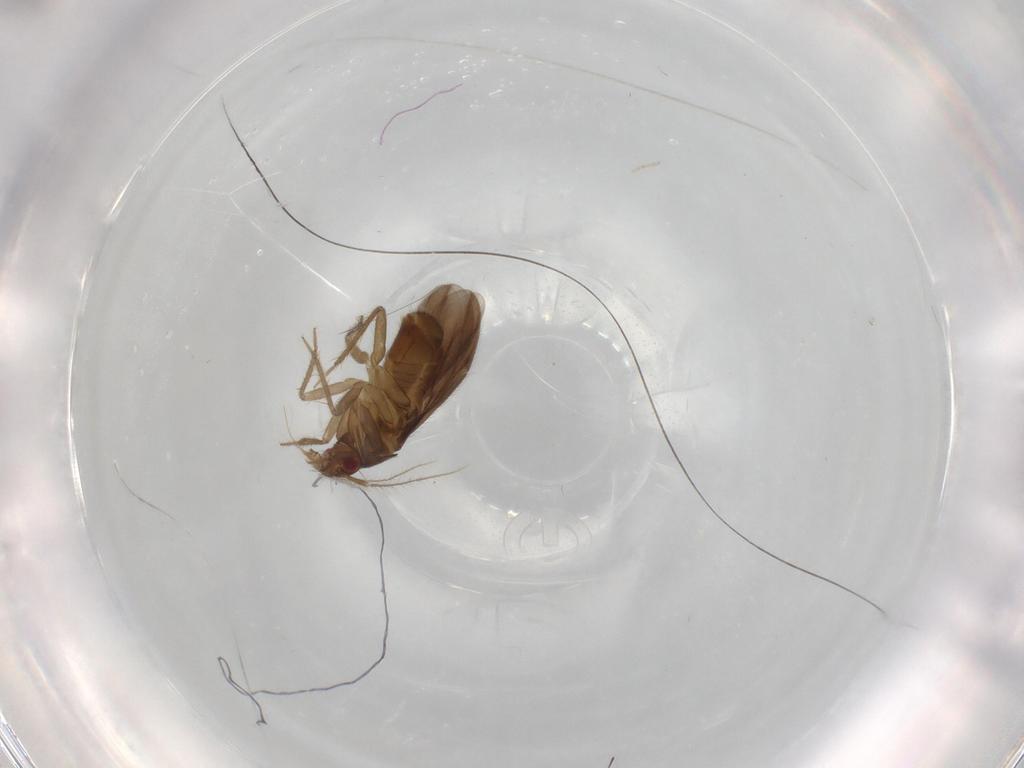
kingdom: Animalia
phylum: Arthropoda
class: Insecta
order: Hemiptera
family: Ceratocombidae
